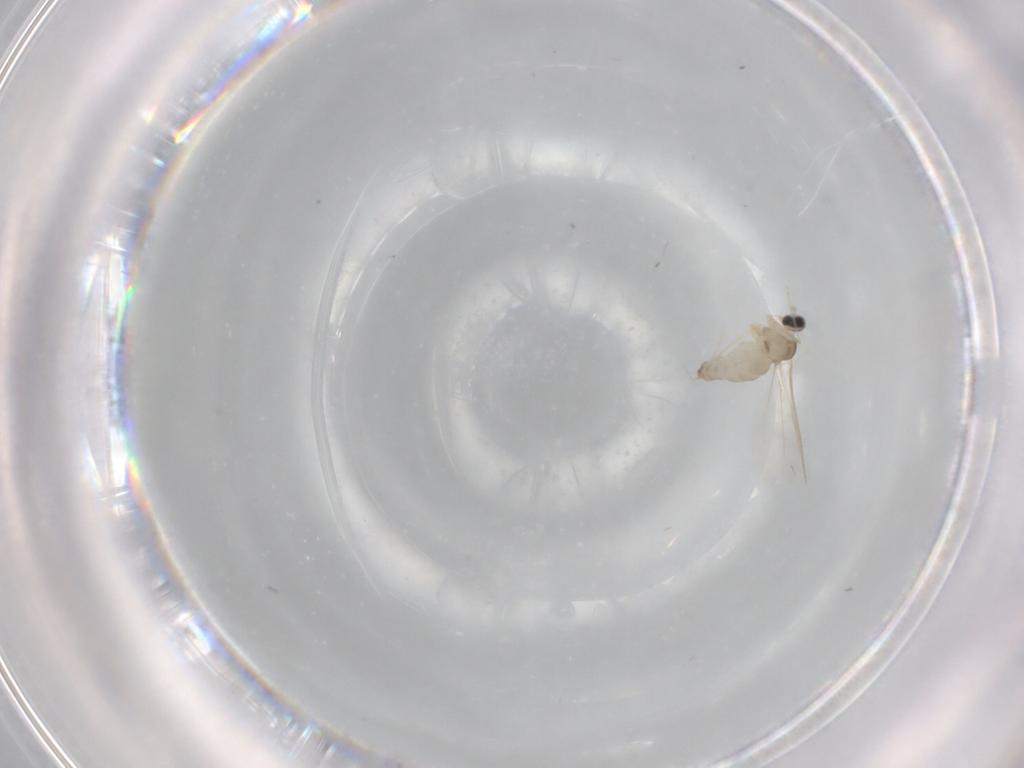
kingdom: Animalia
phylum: Arthropoda
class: Insecta
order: Diptera
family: Cecidomyiidae
